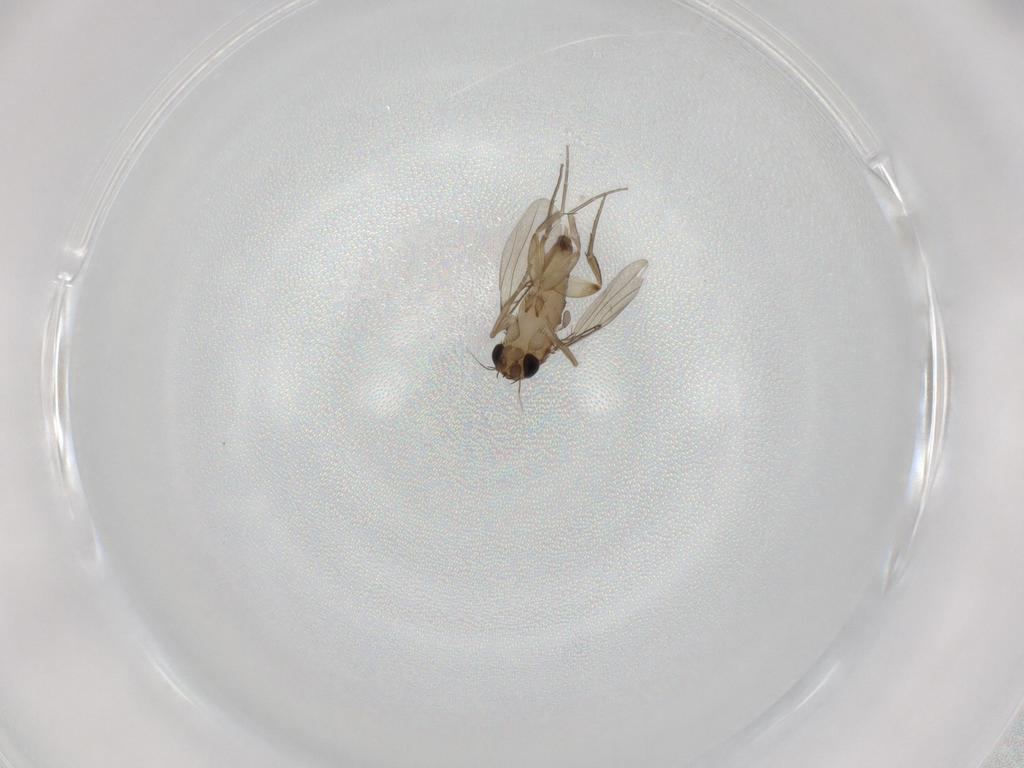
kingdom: Animalia
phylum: Arthropoda
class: Insecta
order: Diptera
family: Phoridae
